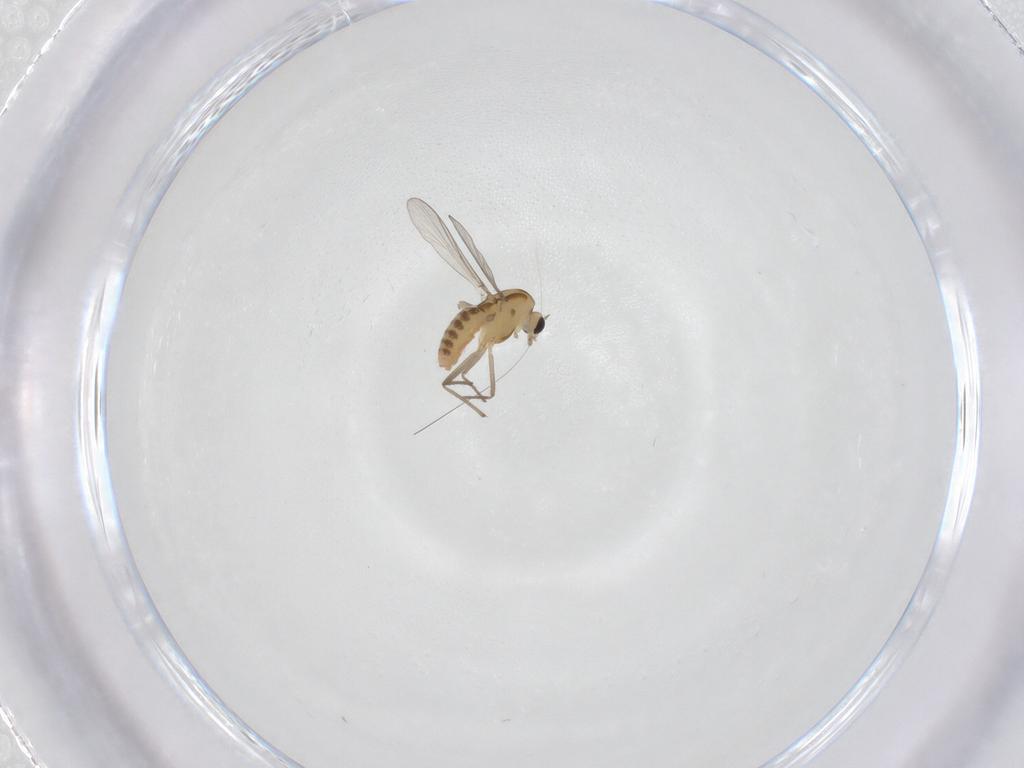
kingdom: Animalia
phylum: Arthropoda
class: Insecta
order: Diptera
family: Chironomidae
